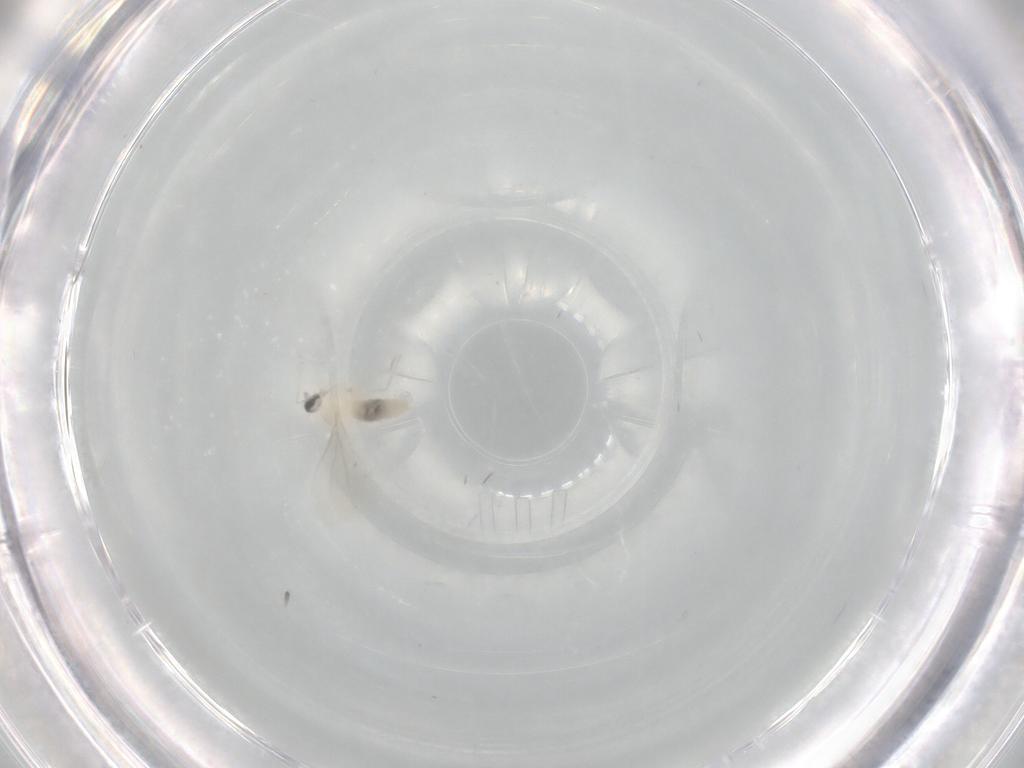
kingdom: Animalia
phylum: Arthropoda
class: Insecta
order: Diptera
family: Cecidomyiidae
